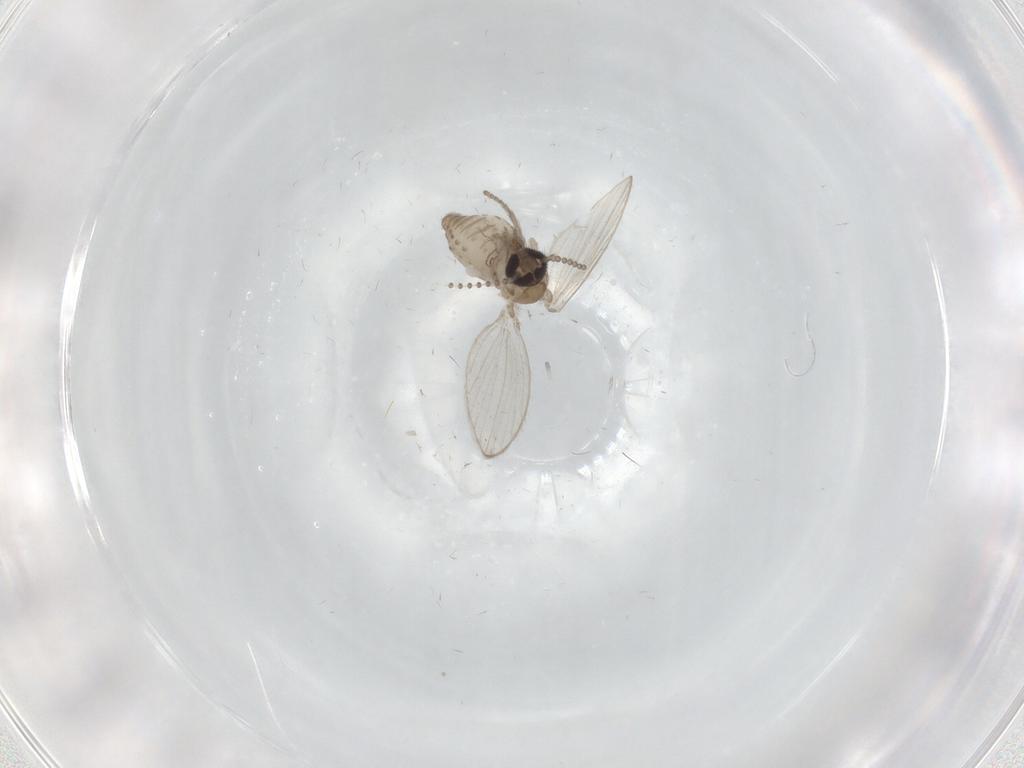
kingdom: Animalia
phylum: Arthropoda
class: Insecta
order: Diptera
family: Psychodidae
